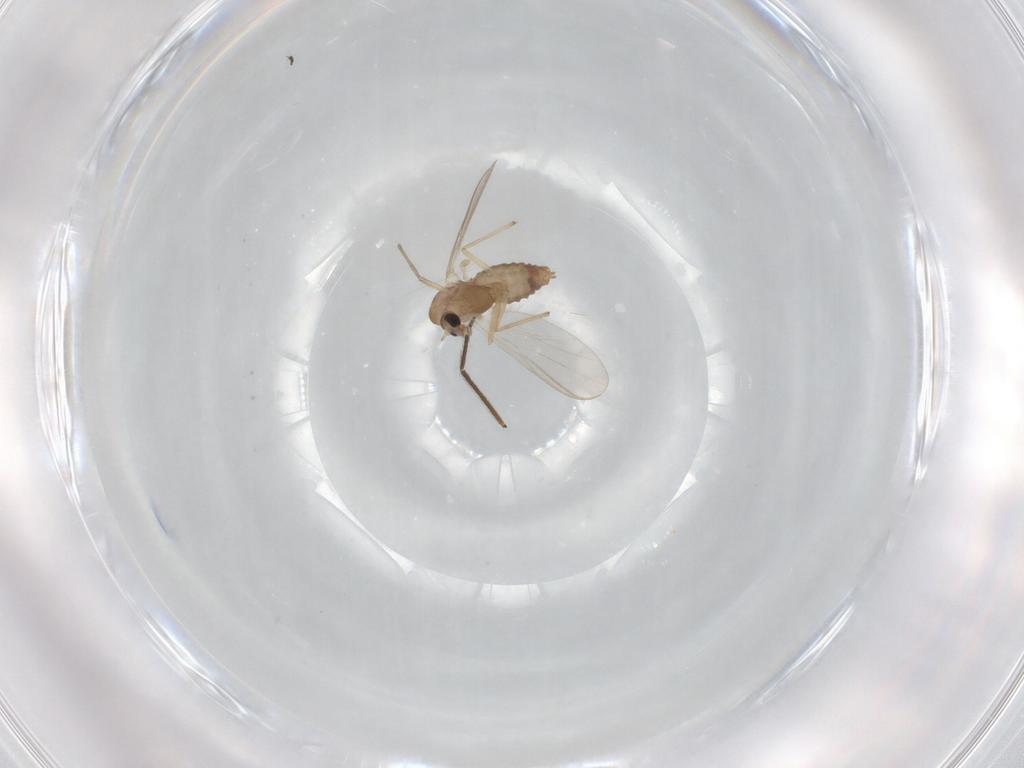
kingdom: Animalia
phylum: Arthropoda
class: Insecta
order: Diptera
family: Chironomidae
